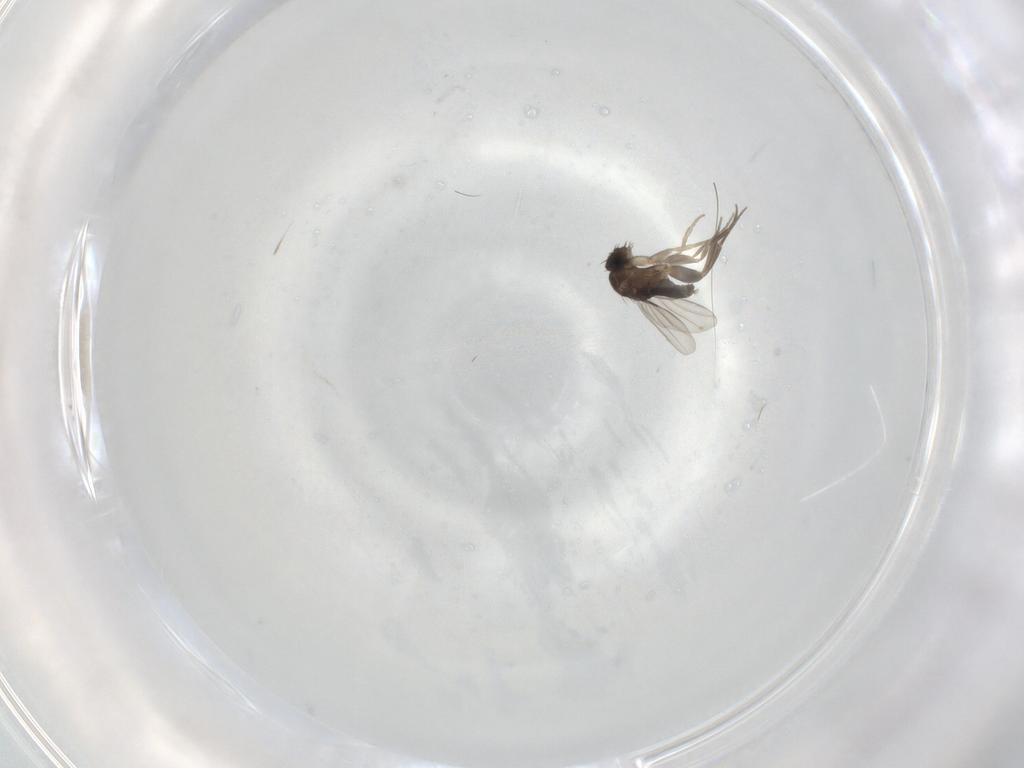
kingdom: Animalia
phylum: Arthropoda
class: Insecta
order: Diptera
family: Phoridae
